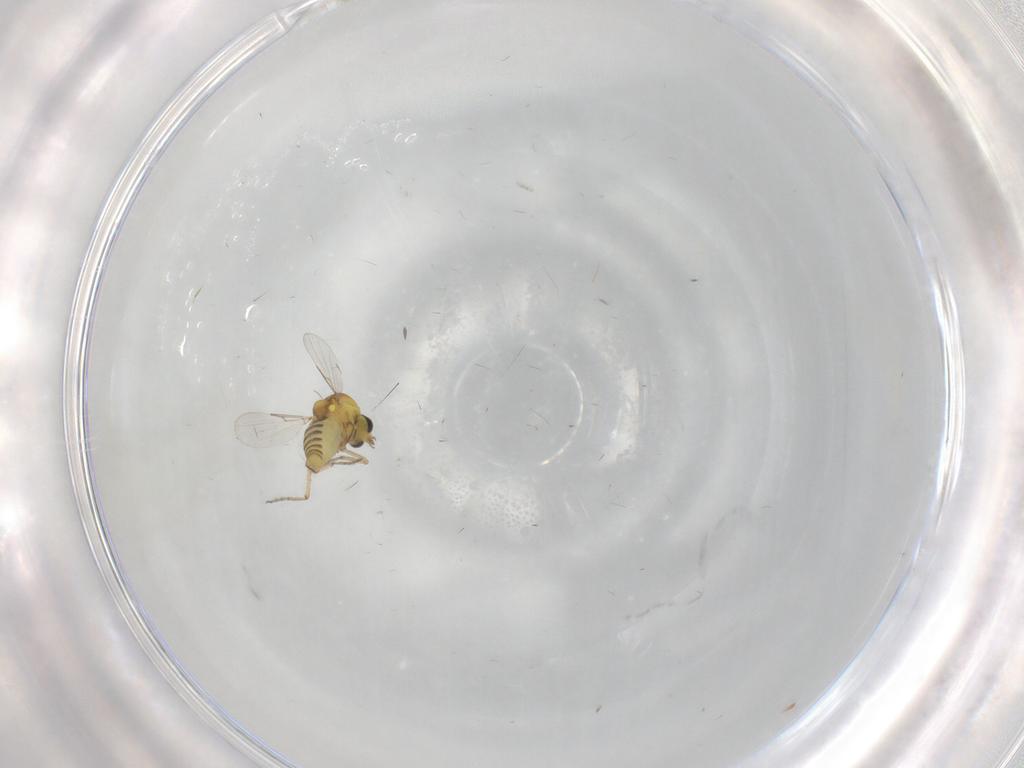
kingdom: Animalia
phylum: Arthropoda
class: Insecta
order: Diptera
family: Ceratopogonidae
